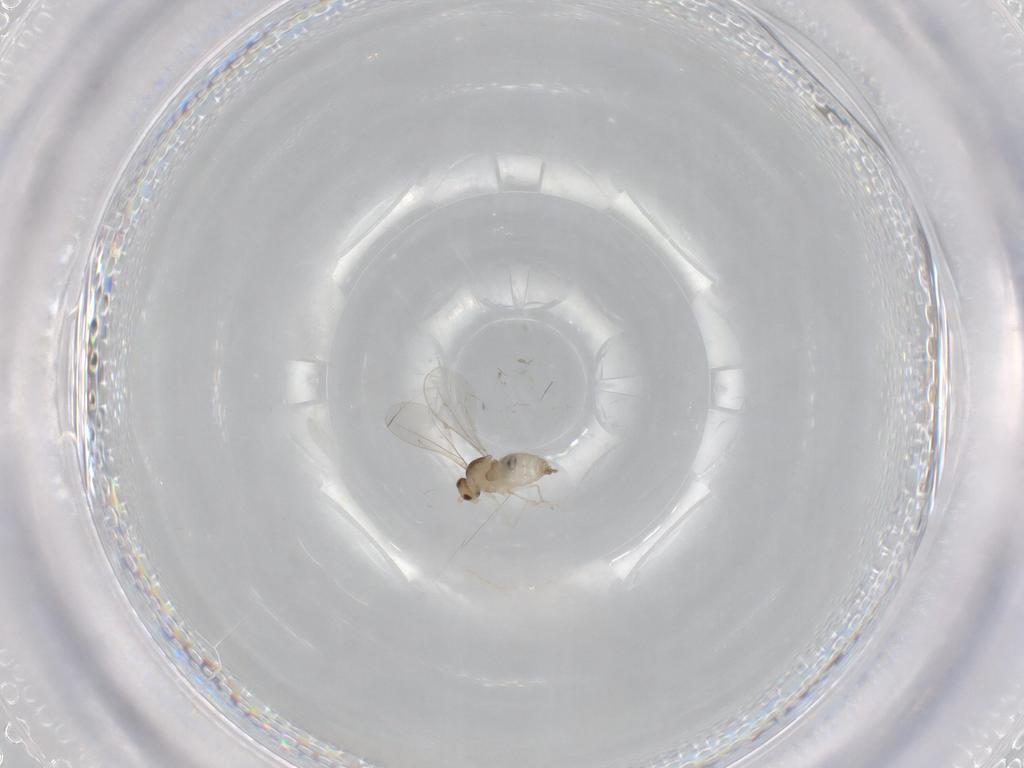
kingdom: Animalia
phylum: Arthropoda
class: Insecta
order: Diptera
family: Cecidomyiidae
